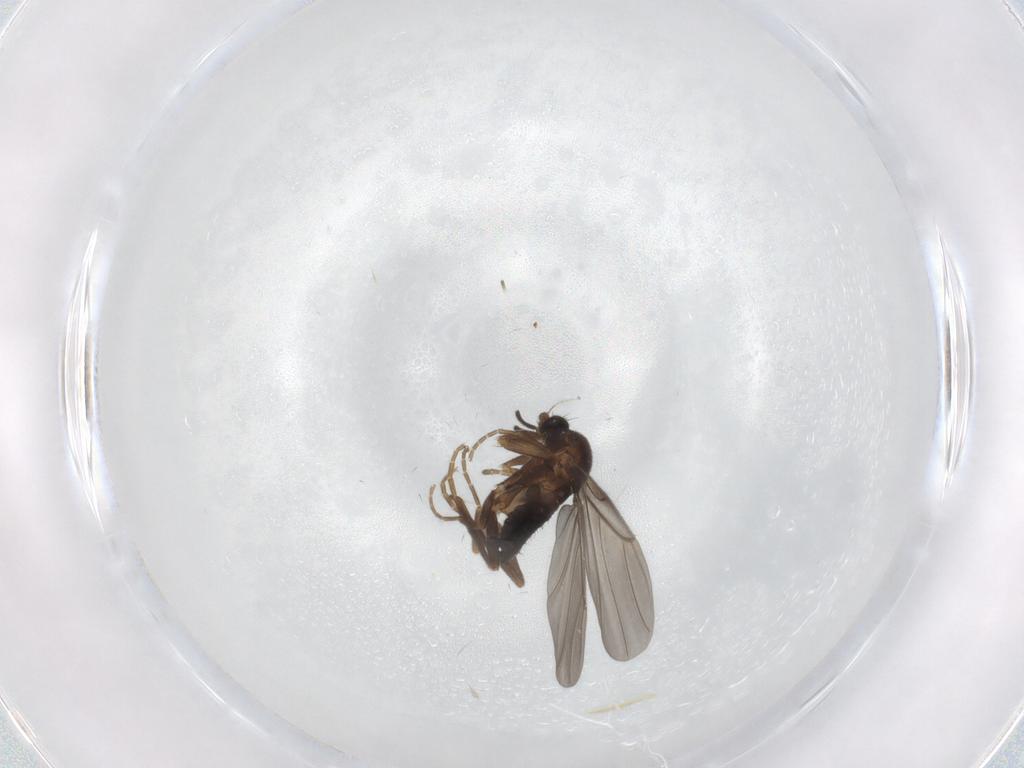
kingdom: Animalia
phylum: Arthropoda
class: Insecta
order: Diptera
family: Phoridae
